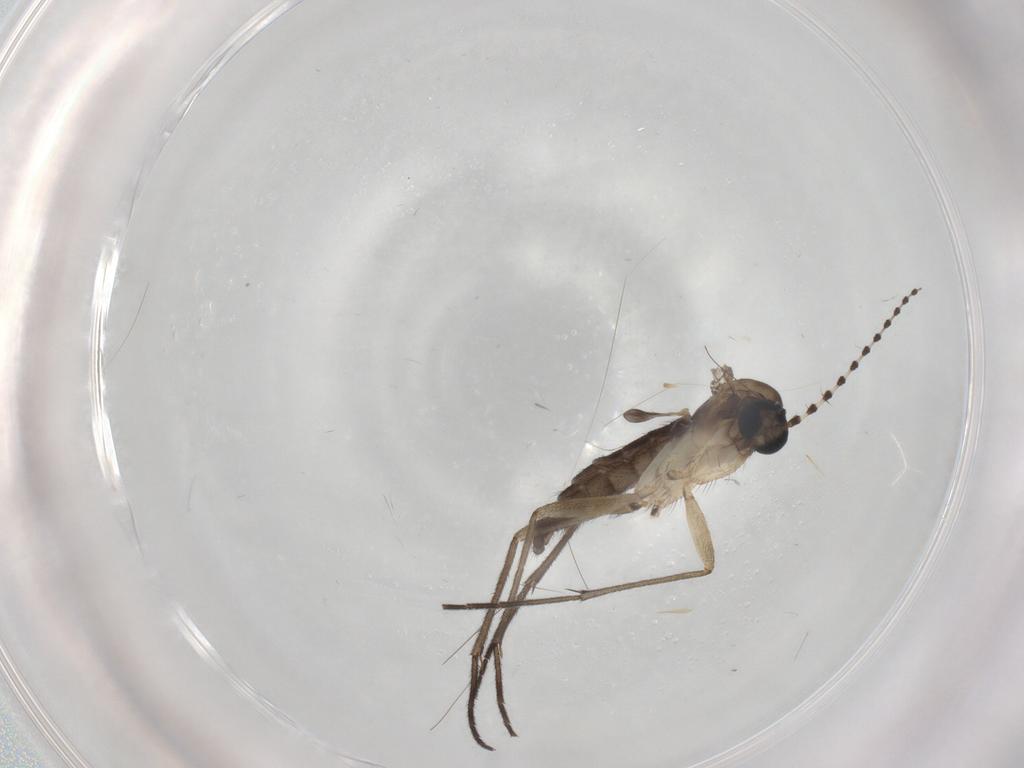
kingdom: Animalia
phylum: Arthropoda
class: Insecta
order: Diptera
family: Sciaridae
